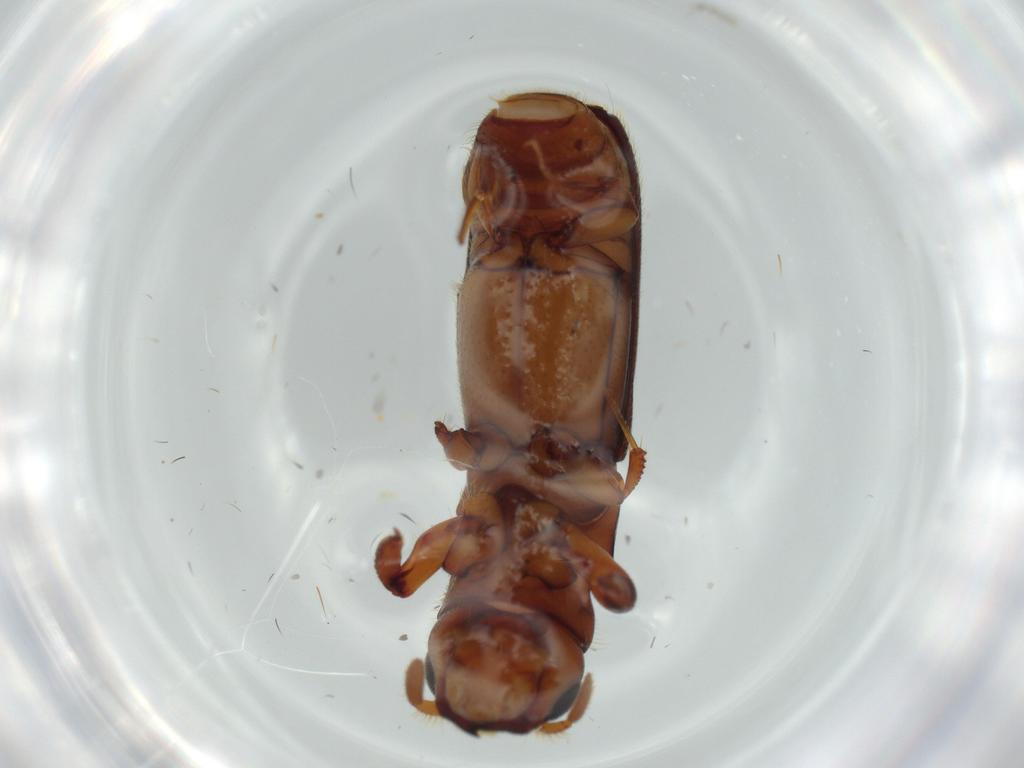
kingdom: Animalia
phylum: Arthropoda
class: Insecta
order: Coleoptera
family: Curculionidae
